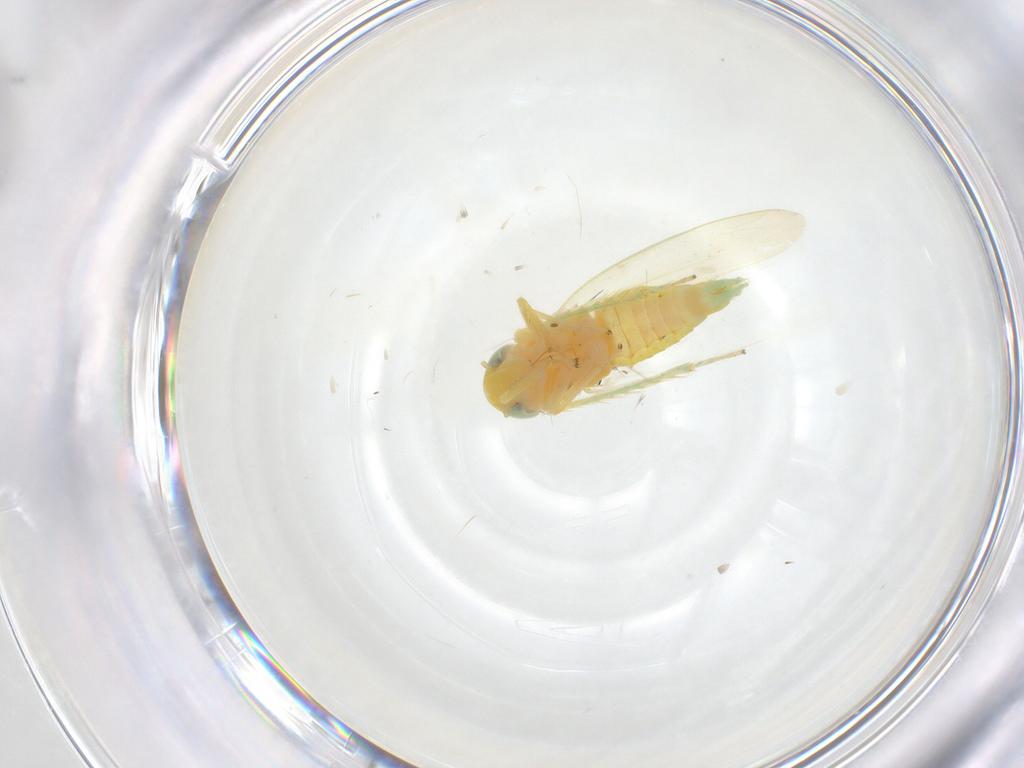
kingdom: Animalia
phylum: Arthropoda
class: Insecta
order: Hemiptera
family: Cicadellidae
